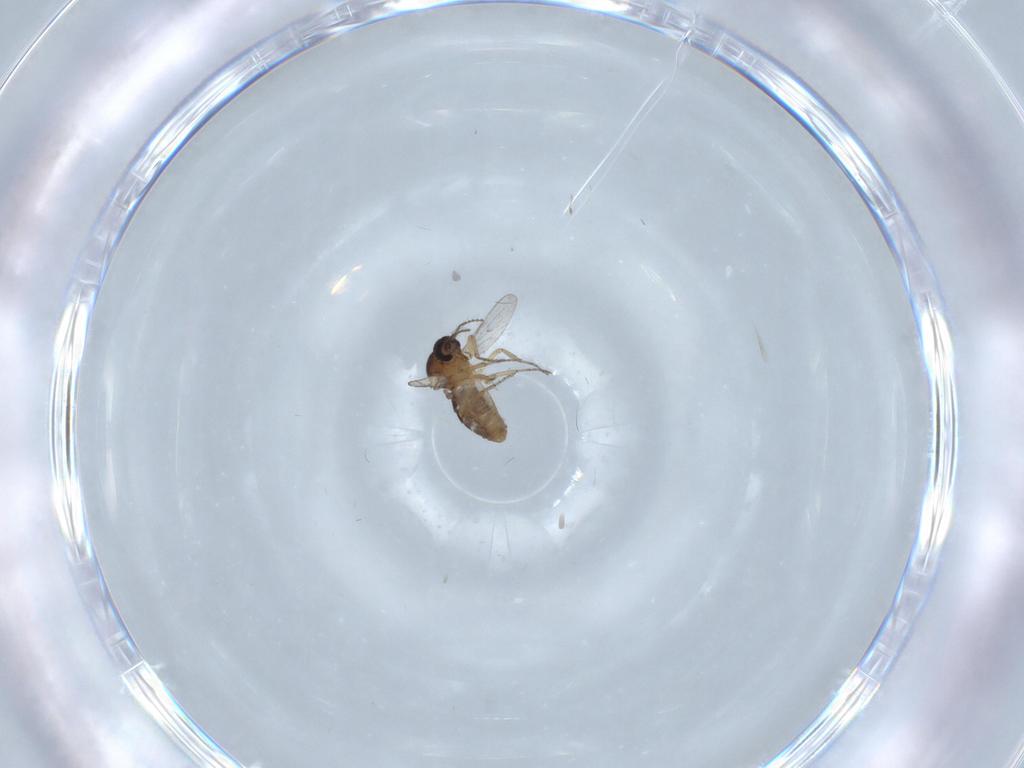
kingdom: Animalia
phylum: Arthropoda
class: Insecta
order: Diptera
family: Ceratopogonidae
